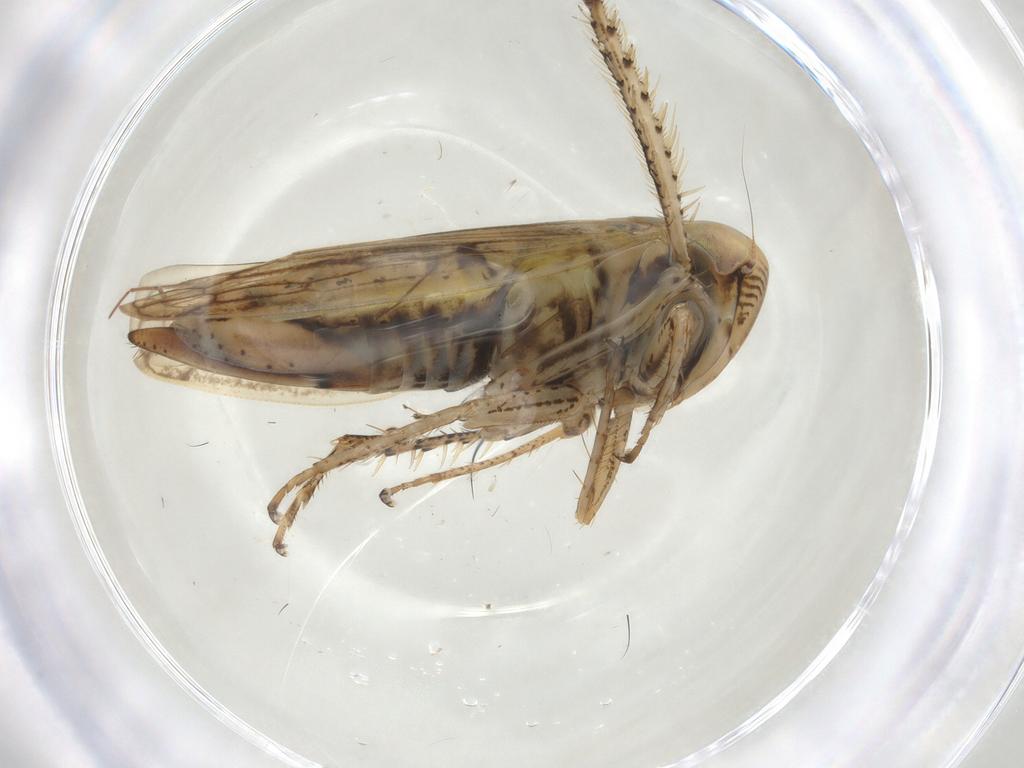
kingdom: Animalia
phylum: Arthropoda
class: Insecta
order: Hemiptera
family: Cicadellidae
